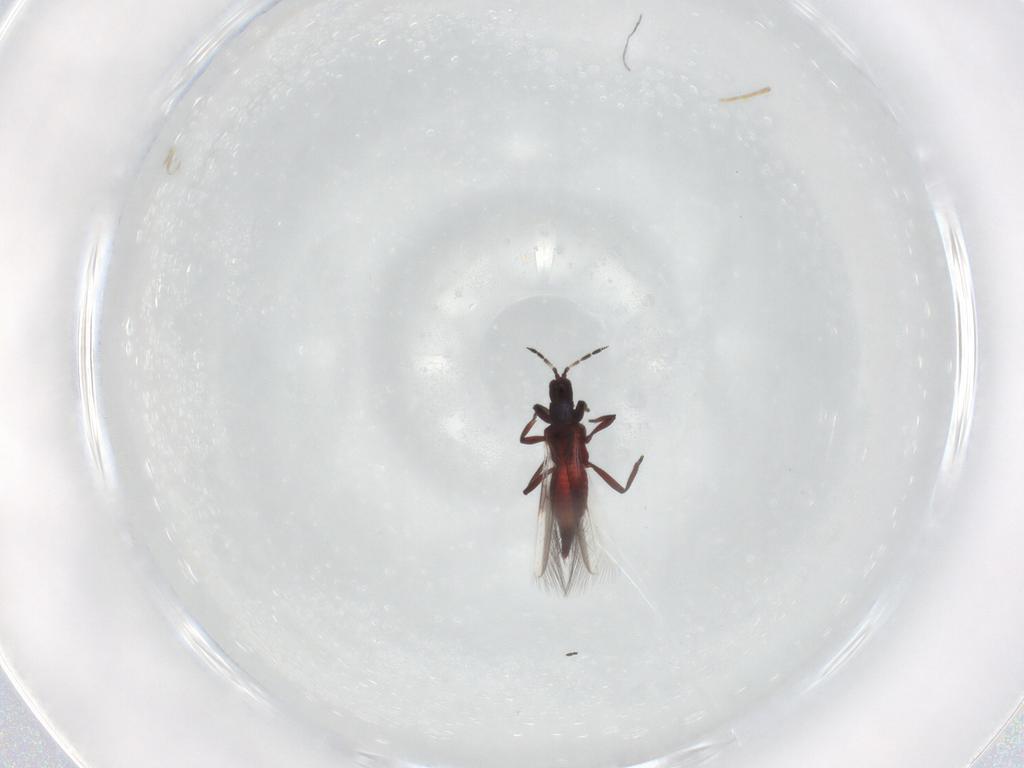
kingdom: Animalia
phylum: Arthropoda
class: Insecta
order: Thysanoptera
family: Aeolothripidae
